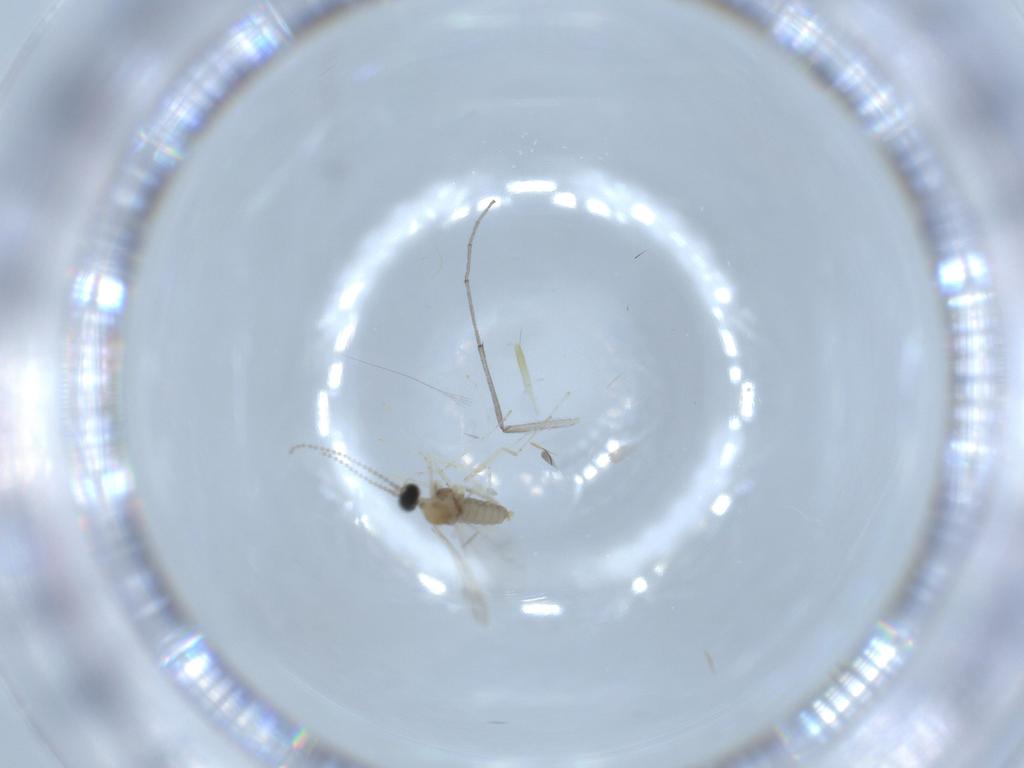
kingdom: Animalia
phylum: Arthropoda
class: Insecta
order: Diptera
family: Cecidomyiidae
